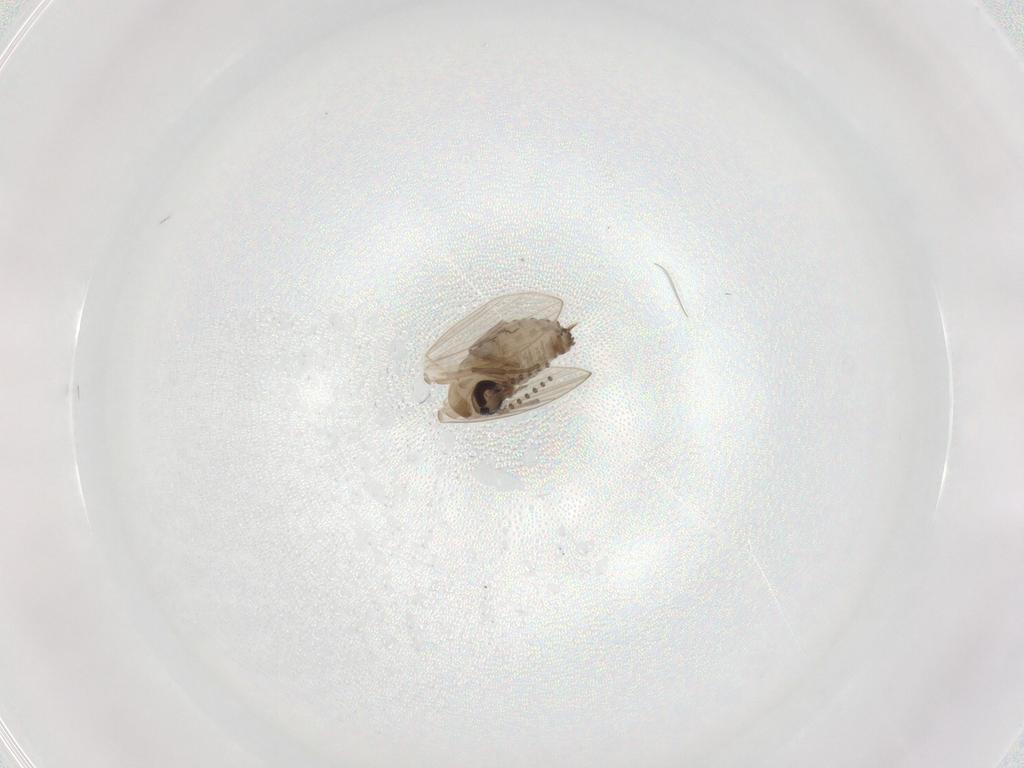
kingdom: Animalia
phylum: Arthropoda
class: Insecta
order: Diptera
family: Psychodidae
